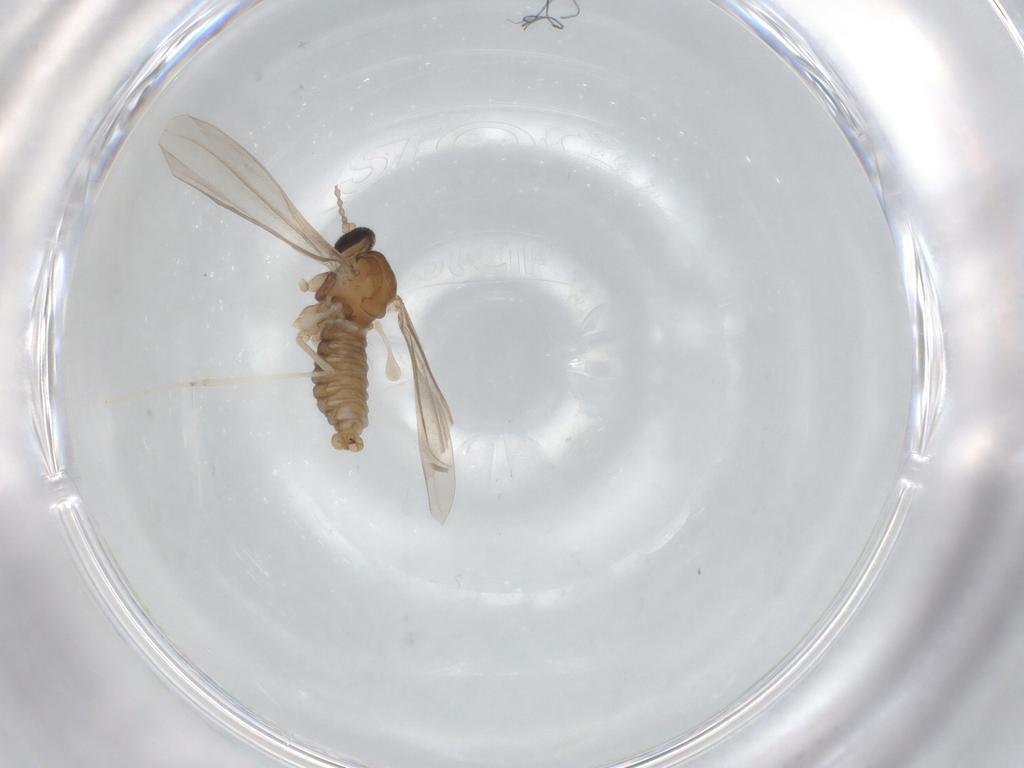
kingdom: Animalia
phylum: Arthropoda
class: Insecta
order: Diptera
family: Cecidomyiidae
